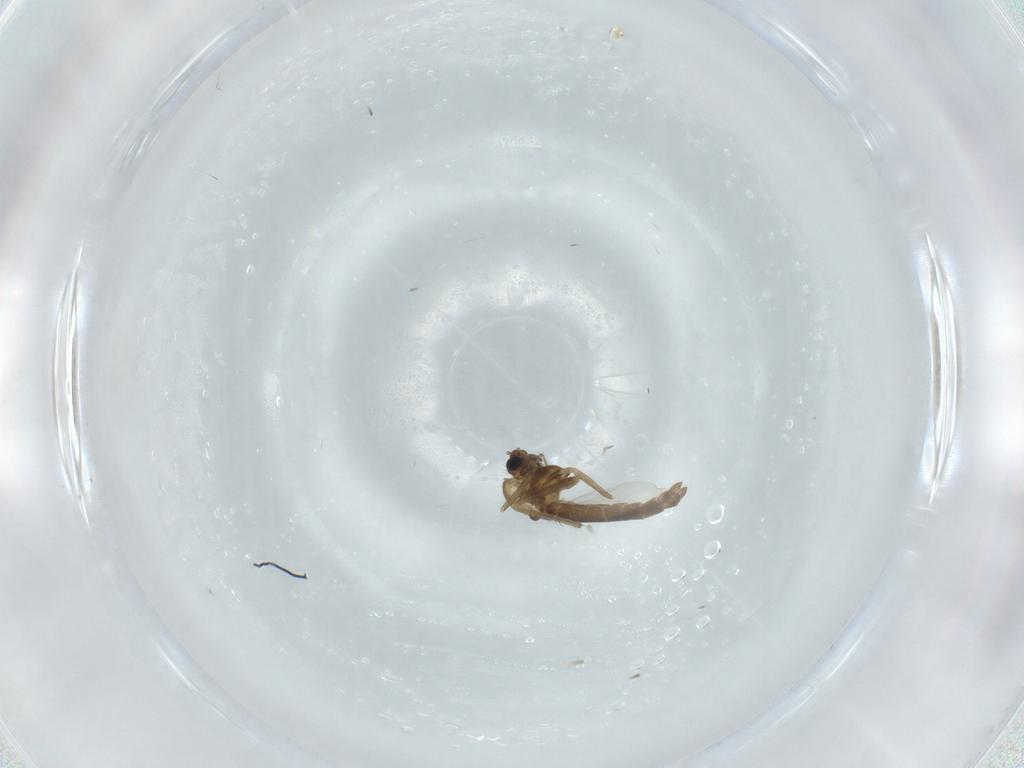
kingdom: Animalia
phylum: Arthropoda
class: Insecta
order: Diptera
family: Chironomidae
